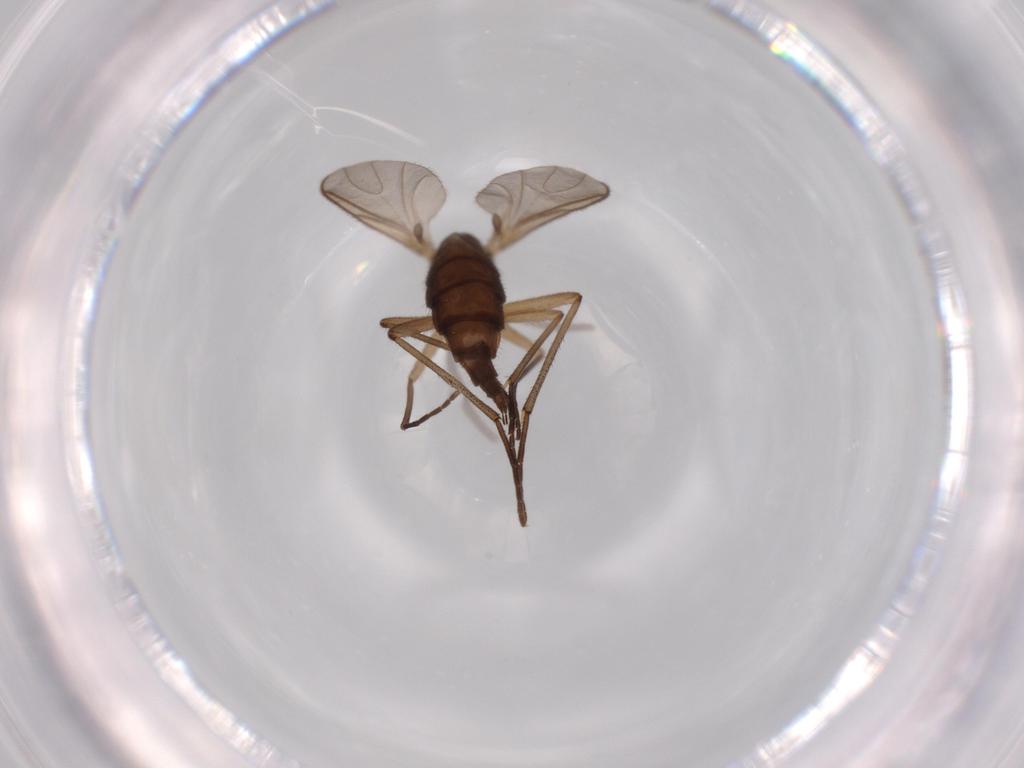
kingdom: Animalia
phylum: Arthropoda
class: Insecta
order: Diptera
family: Sciaridae
